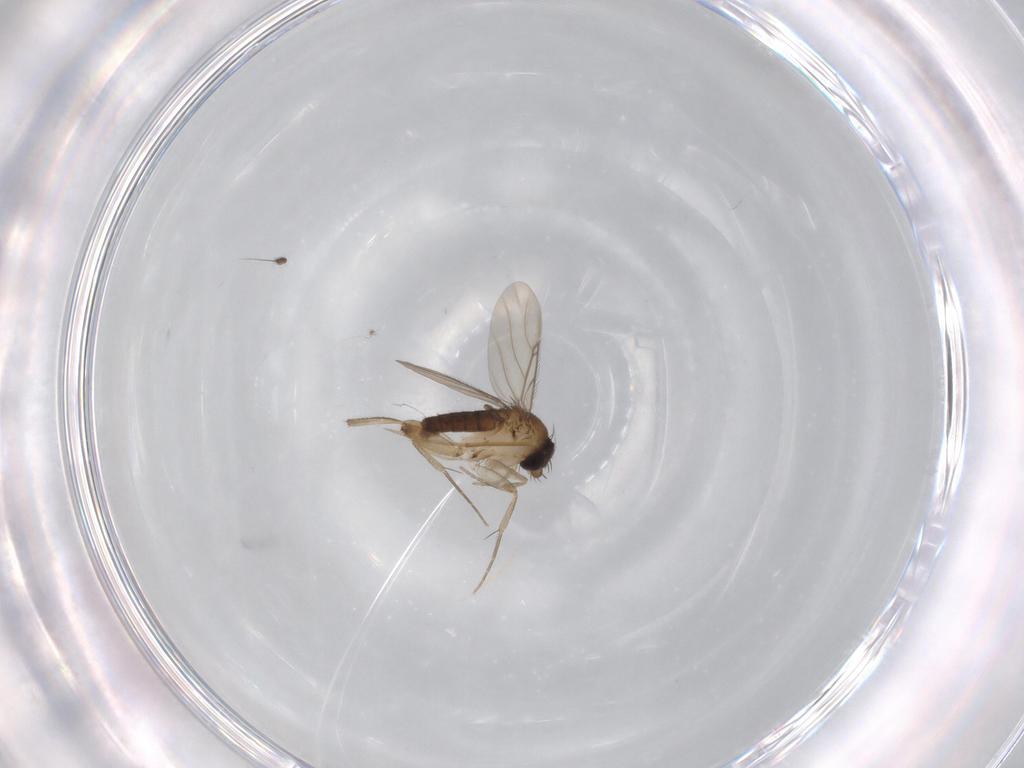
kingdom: Animalia
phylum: Arthropoda
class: Insecta
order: Diptera
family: Phoridae
